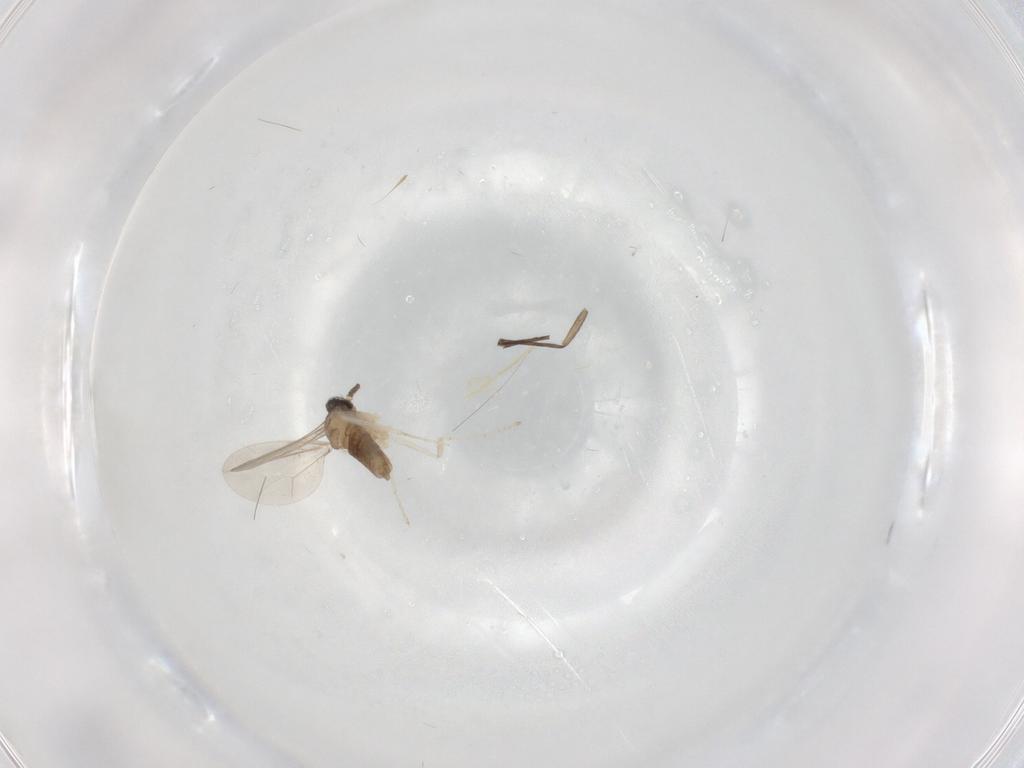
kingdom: Animalia
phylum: Arthropoda
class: Insecta
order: Diptera
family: Sciaridae
